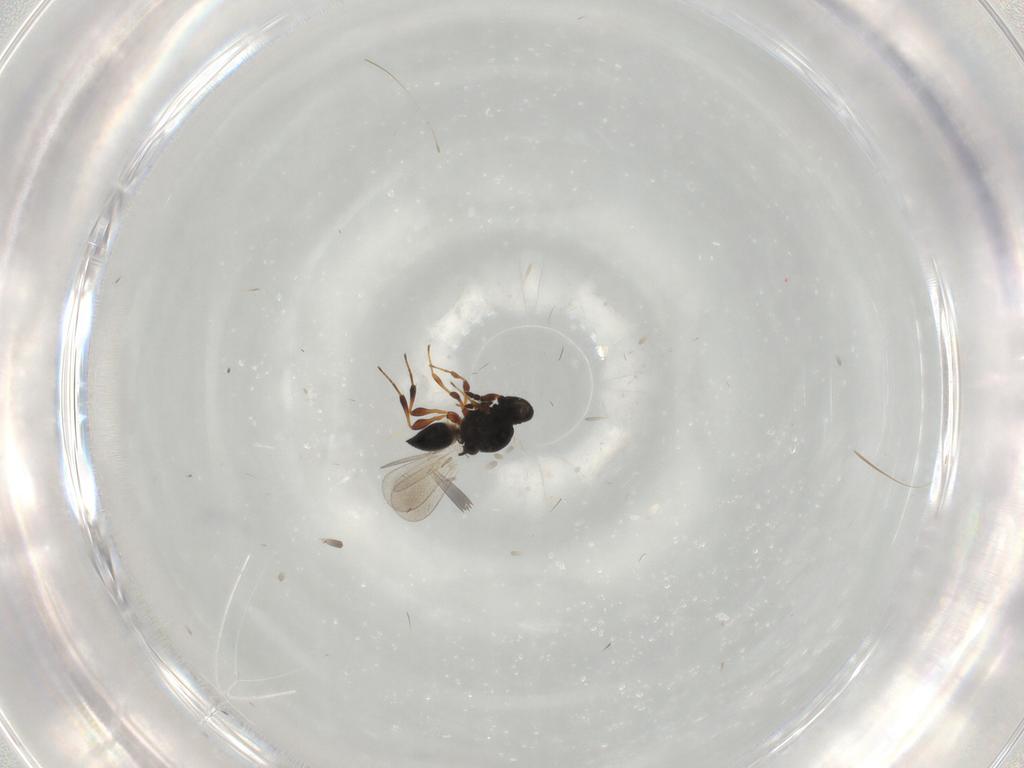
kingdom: Animalia
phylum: Arthropoda
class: Insecta
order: Hymenoptera
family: Platygastridae
